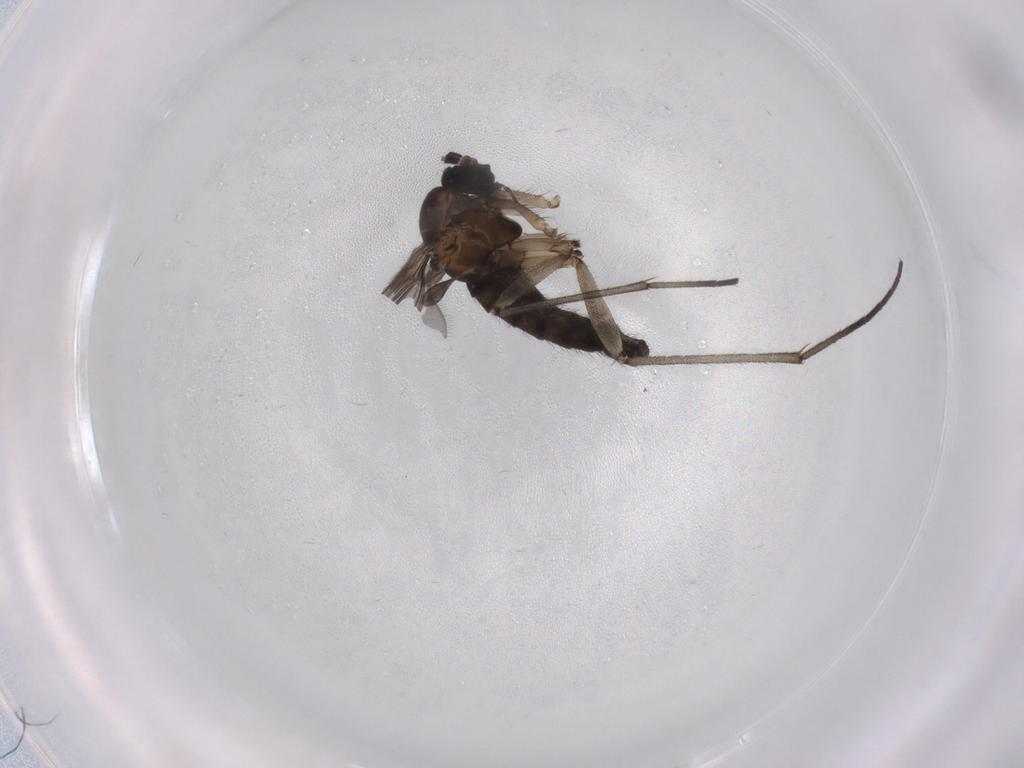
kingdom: Animalia
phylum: Arthropoda
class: Insecta
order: Diptera
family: Sciaridae
